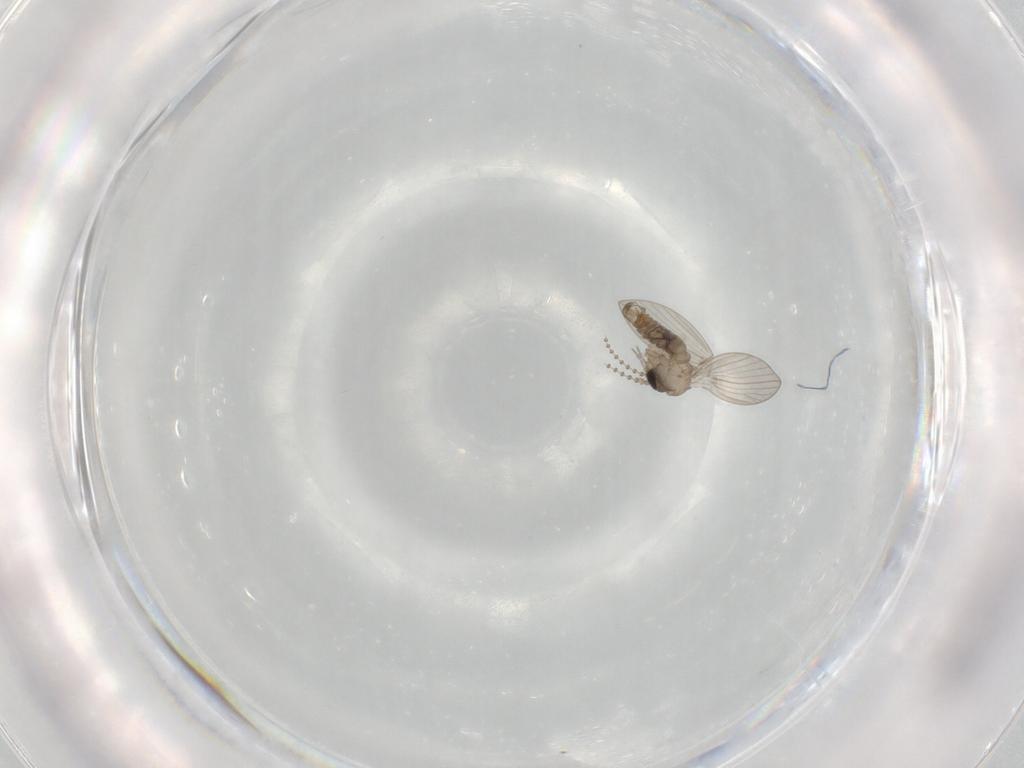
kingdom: Animalia
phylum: Arthropoda
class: Insecta
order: Diptera
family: Psychodidae
